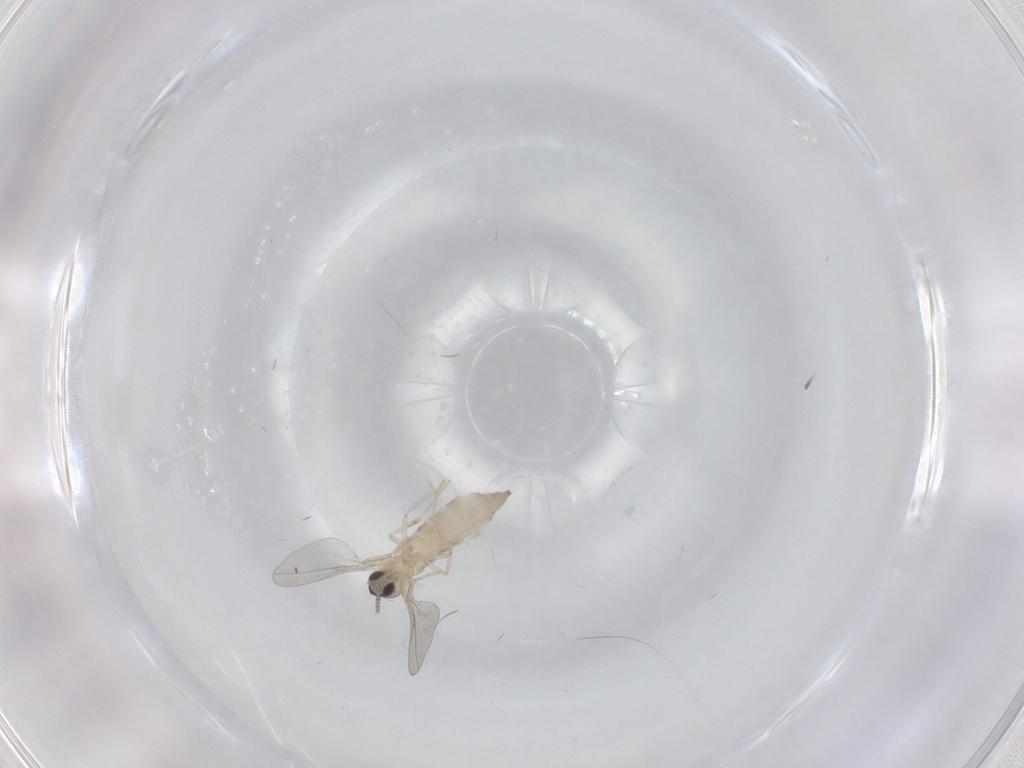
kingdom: Animalia
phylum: Arthropoda
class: Insecta
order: Diptera
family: Cecidomyiidae
